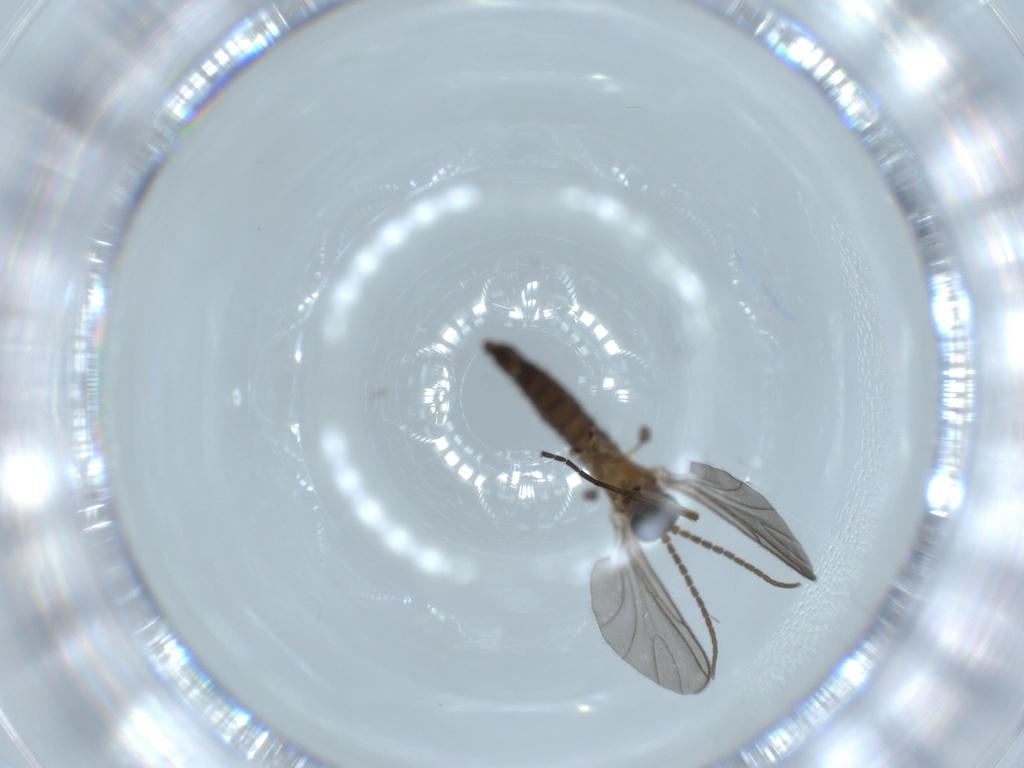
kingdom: Animalia
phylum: Arthropoda
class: Insecta
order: Diptera
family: Sciaridae
